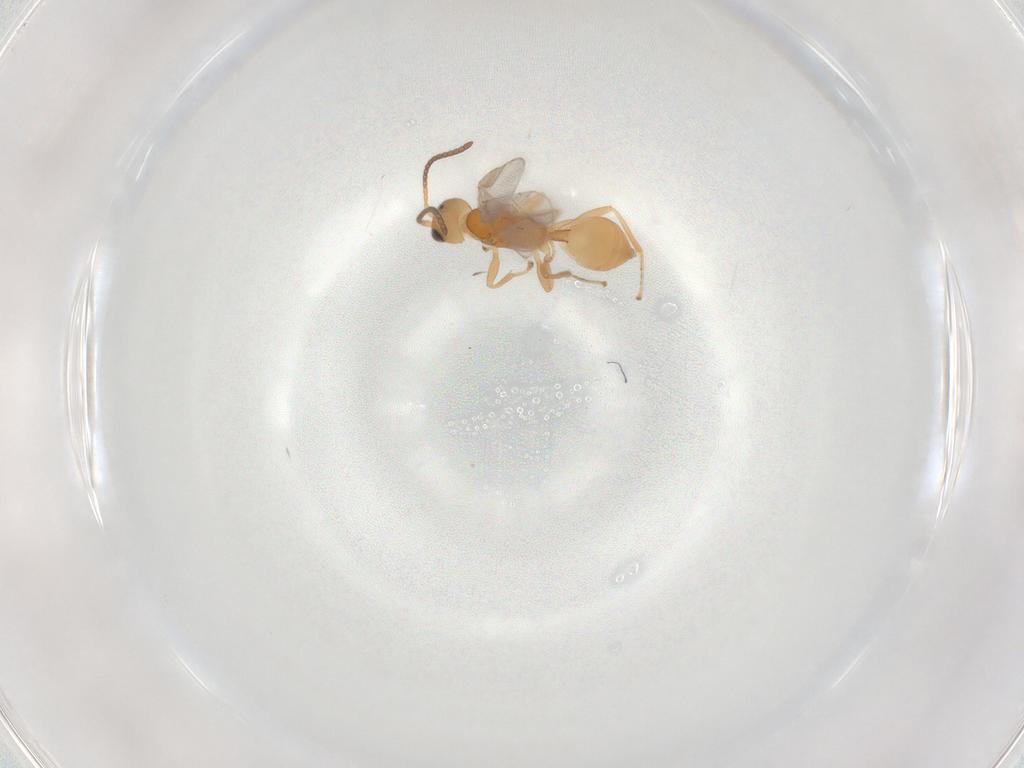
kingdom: Animalia
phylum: Arthropoda
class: Insecta
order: Hymenoptera
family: Braconidae
